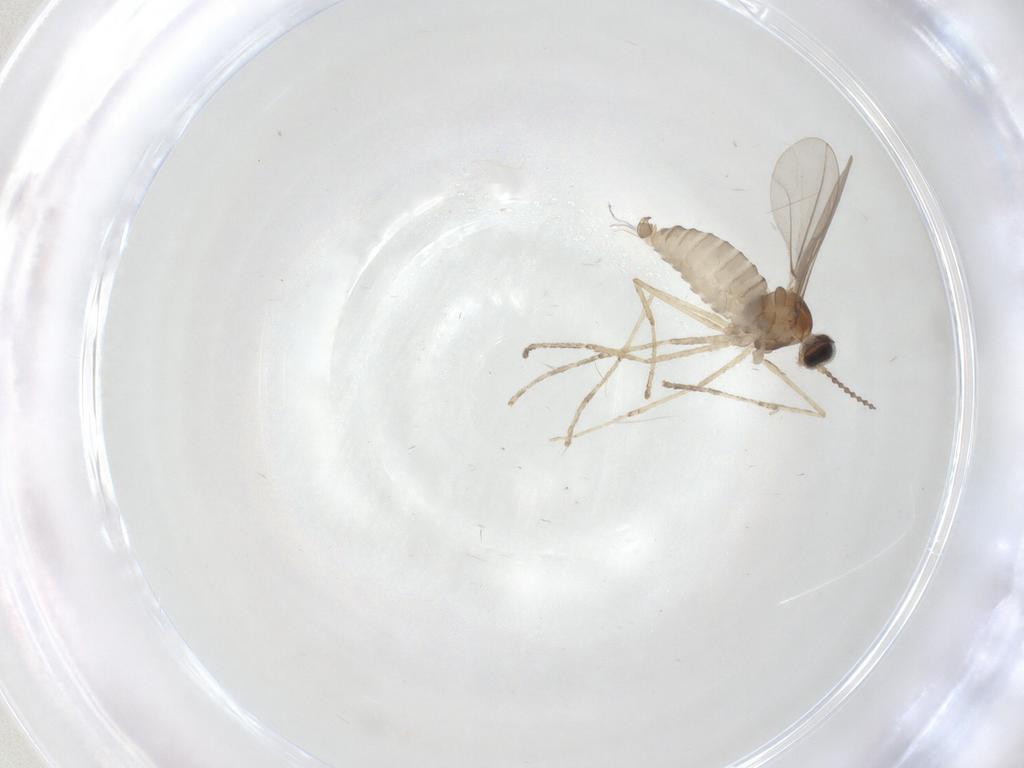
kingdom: Animalia
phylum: Arthropoda
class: Insecta
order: Diptera
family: Cecidomyiidae
